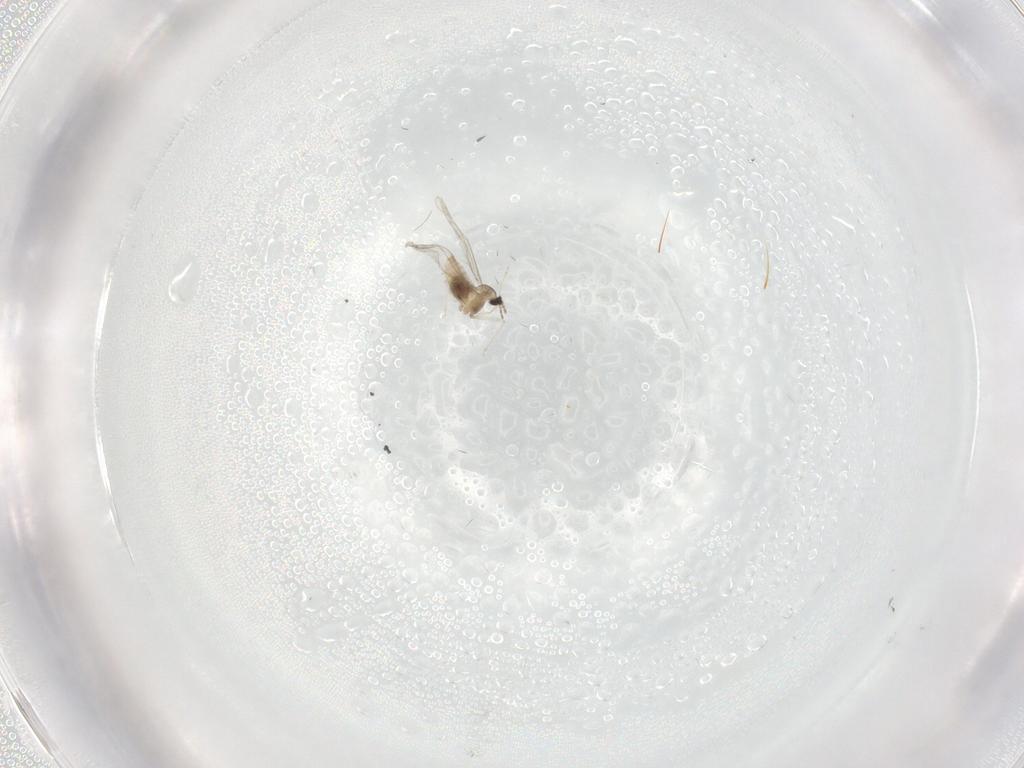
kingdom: Animalia
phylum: Arthropoda
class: Insecta
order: Diptera
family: Phoridae
